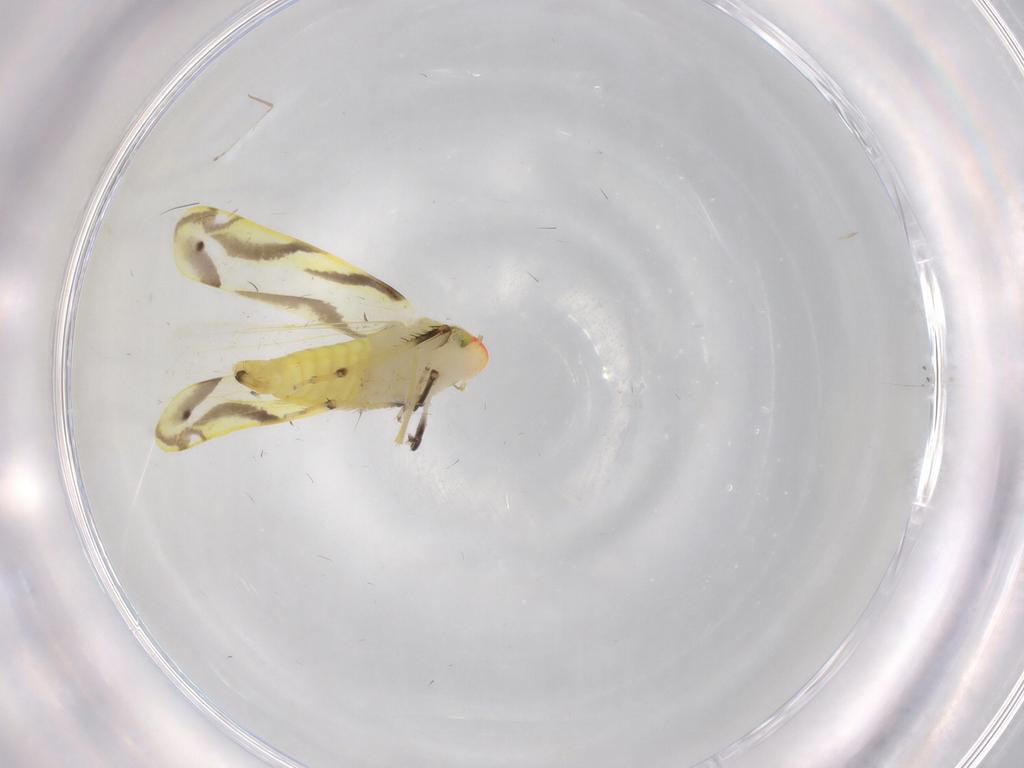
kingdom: Animalia
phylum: Arthropoda
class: Insecta
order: Hemiptera
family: Cicadellidae
